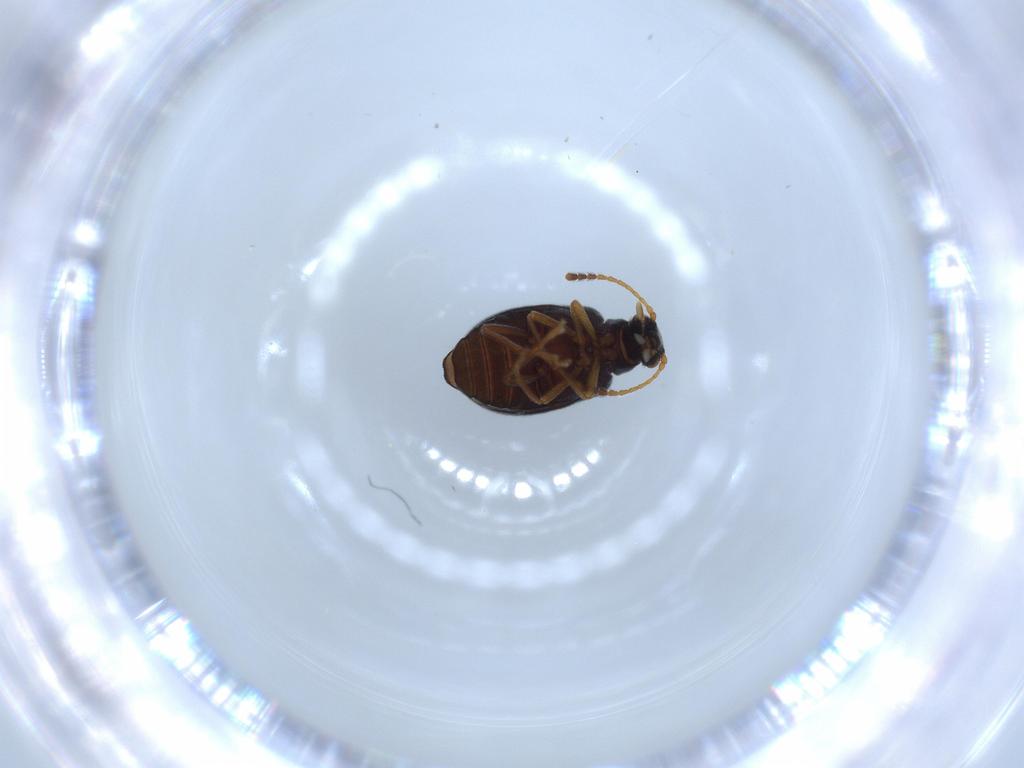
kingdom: Animalia
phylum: Arthropoda
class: Insecta
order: Coleoptera
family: Aderidae
